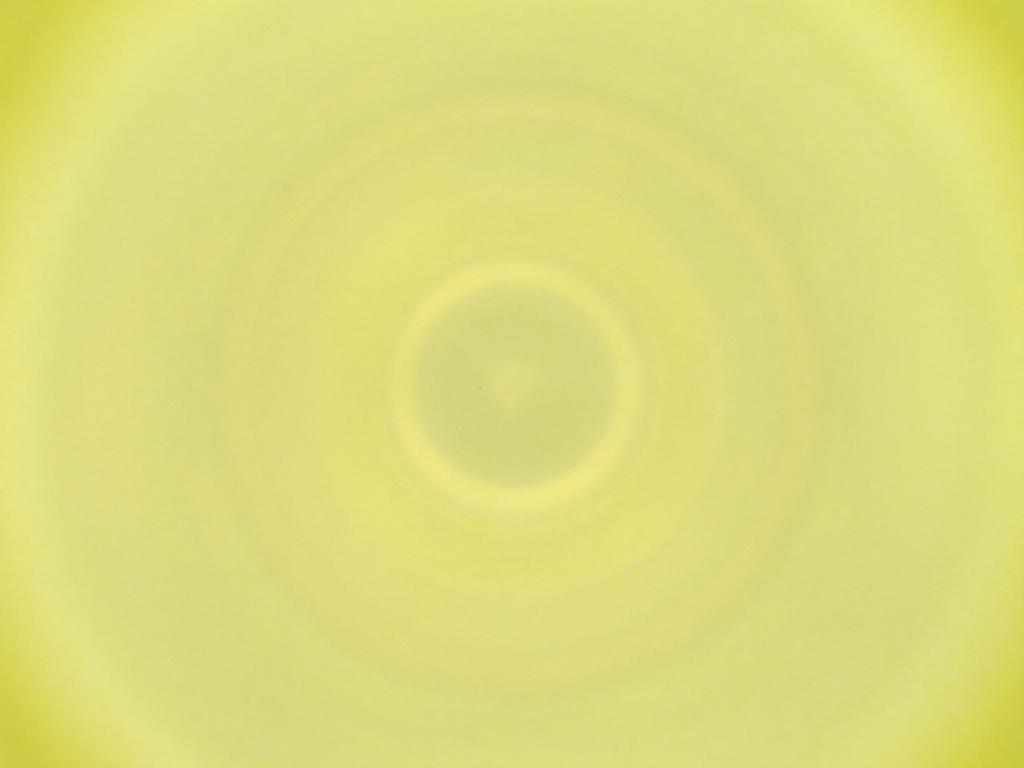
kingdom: Animalia
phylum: Arthropoda
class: Insecta
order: Diptera
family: Cecidomyiidae
